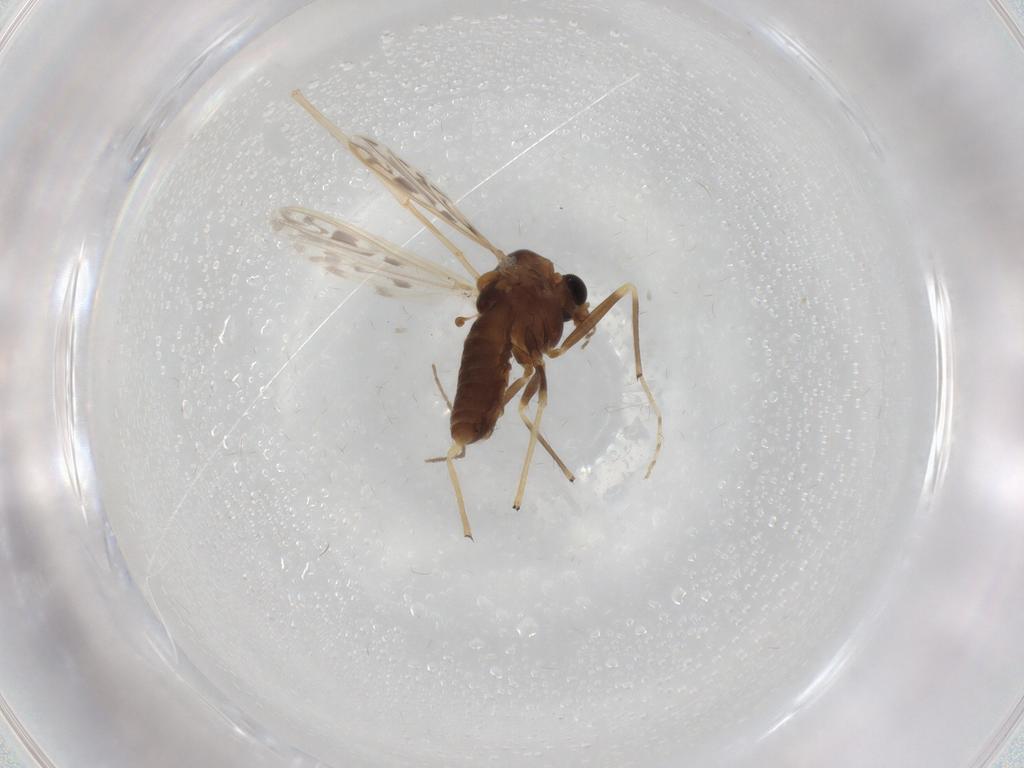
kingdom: Animalia
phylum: Arthropoda
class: Insecta
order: Diptera
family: Chironomidae
